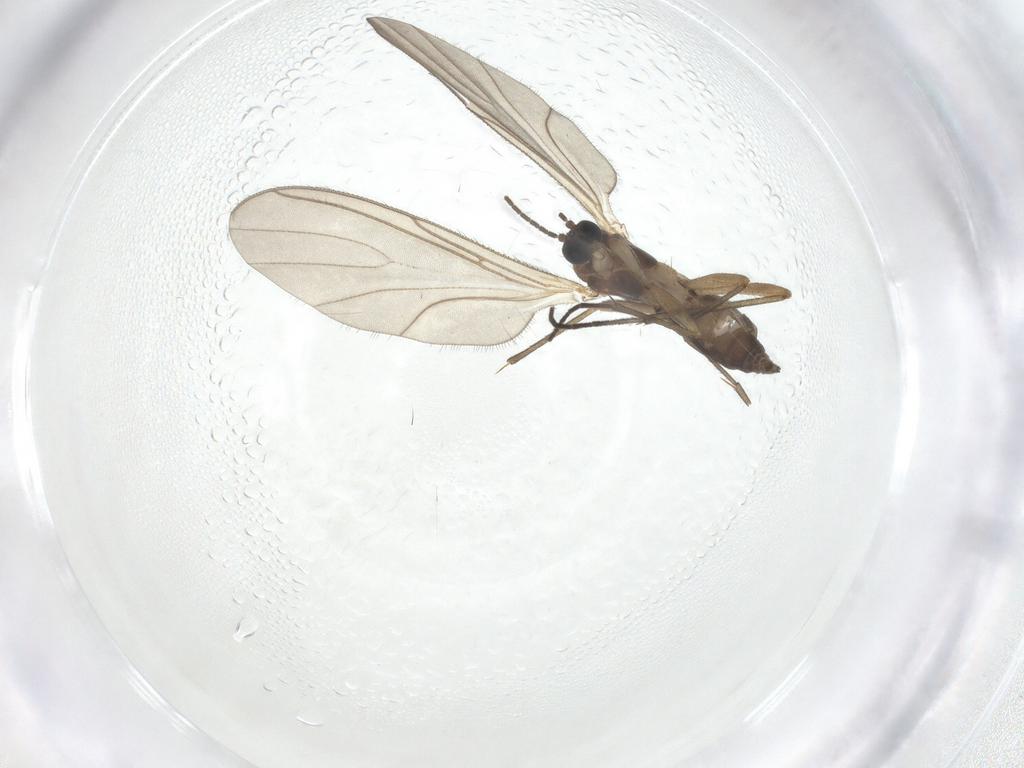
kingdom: Animalia
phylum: Arthropoda
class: Insecta
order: Diptera
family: Sciaridae
